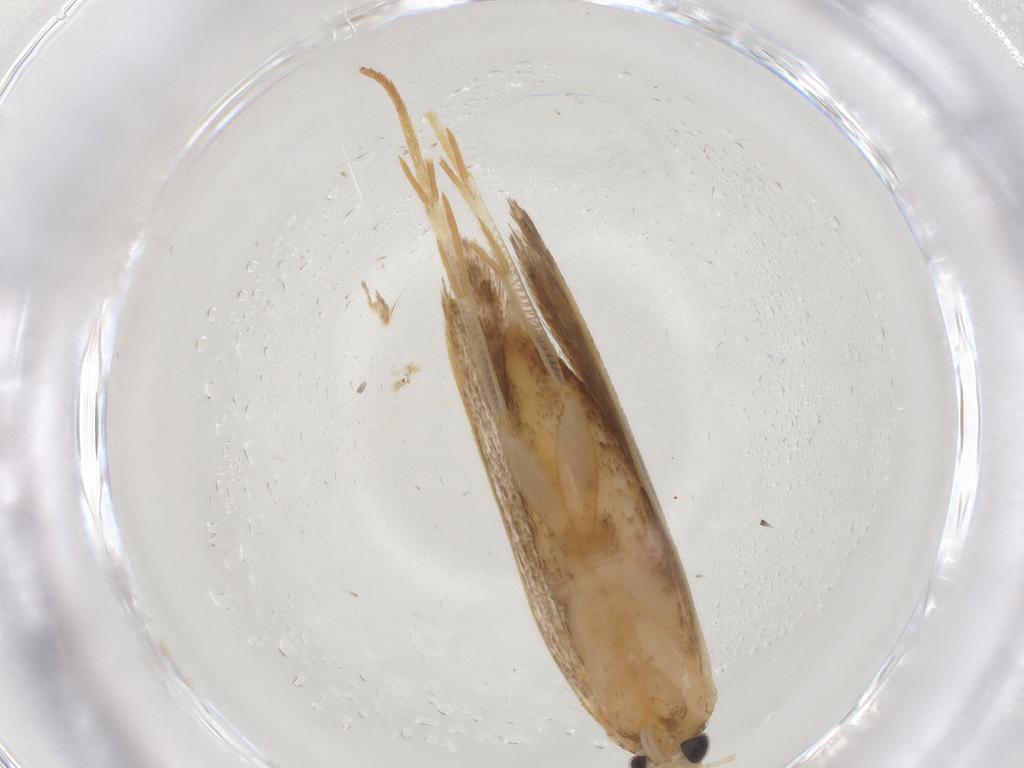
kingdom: Animalia
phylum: Arthropoda
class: Insecta
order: Lepidoptera
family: Gelechiidae
